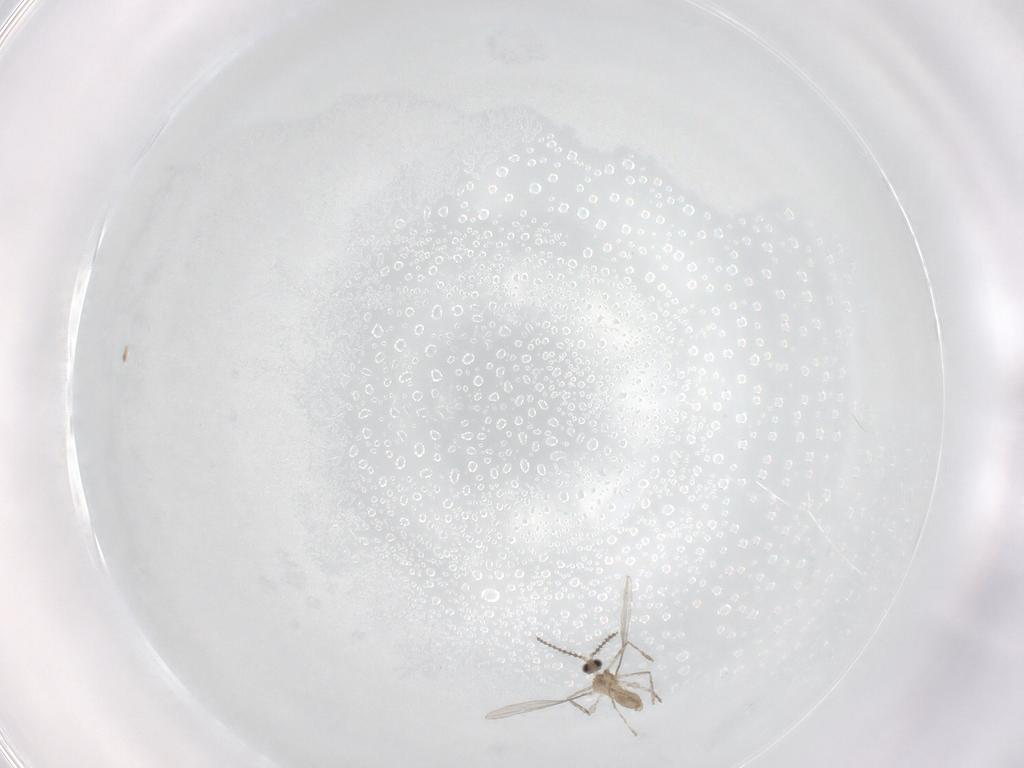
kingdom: Animalia
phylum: Arthropoda
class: Insecta
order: Diptera
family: Cecidomyiidae
